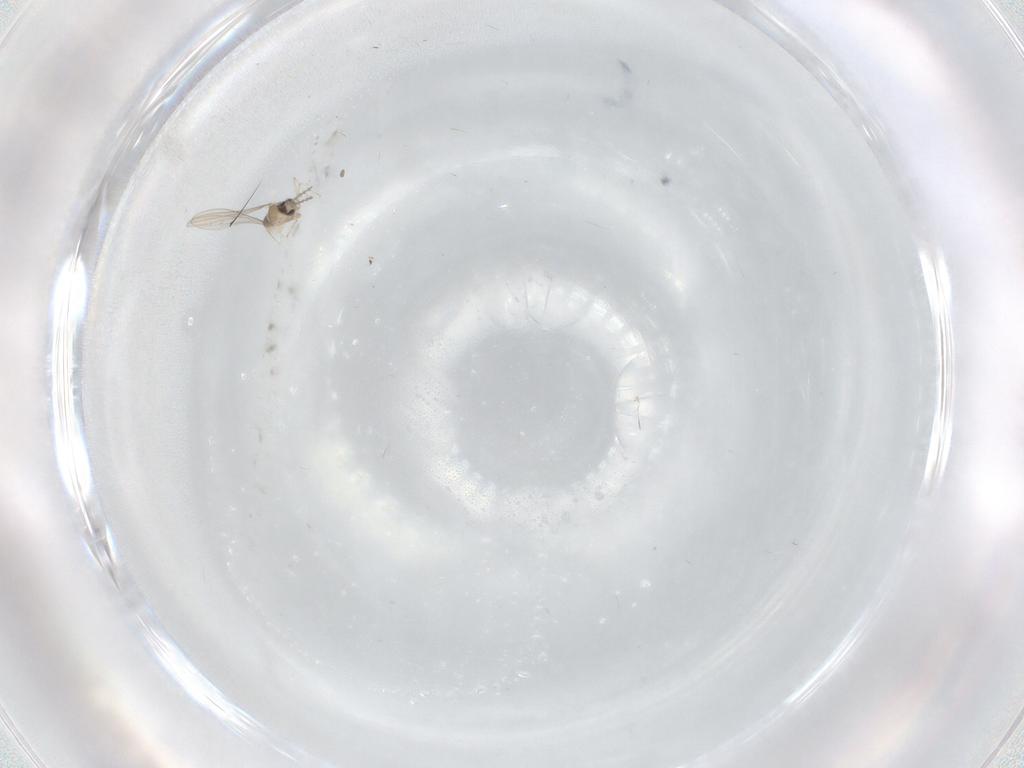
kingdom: Animalia
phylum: Arthropoda
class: Insecta
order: Diptera
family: Cecidomyiidae
